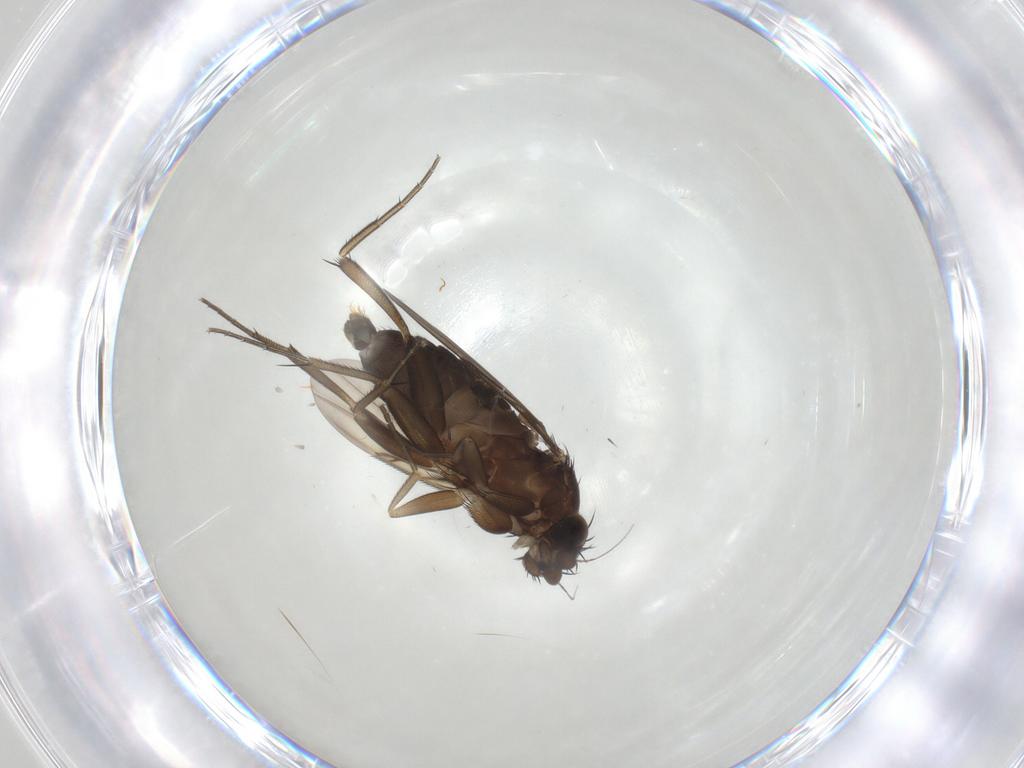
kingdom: Animalia
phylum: Arthropoda
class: Insecta
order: Diptera
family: Phoridae
